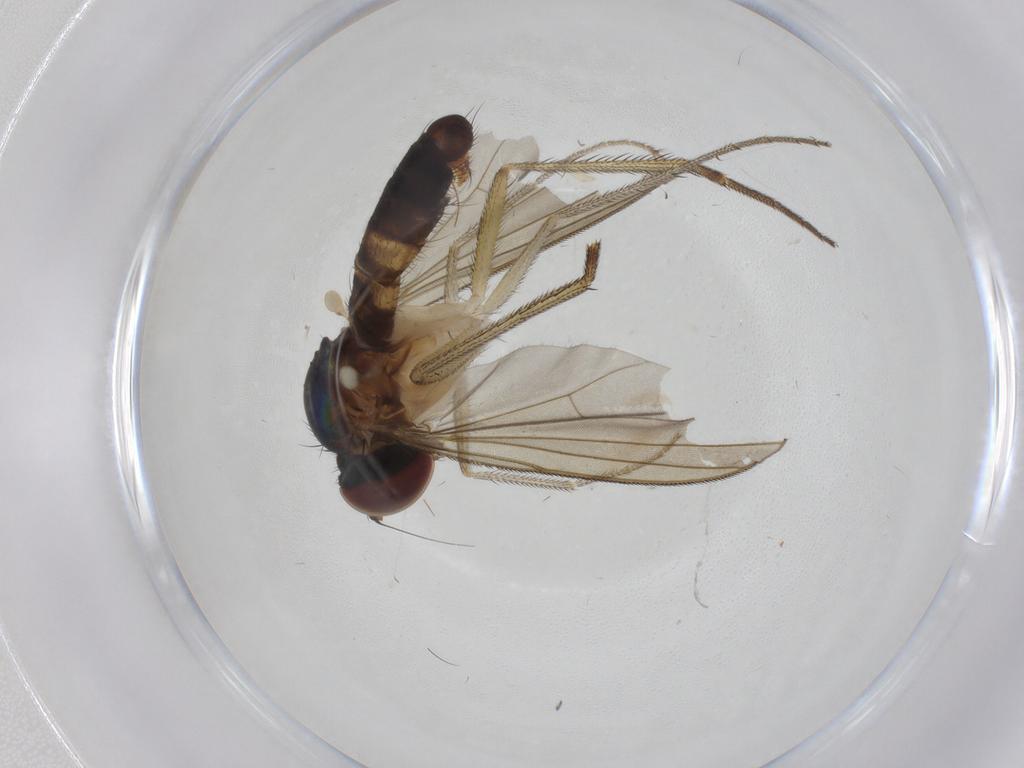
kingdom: Animalia
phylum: Arthropoda
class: Insecta
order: Diptera
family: Dolichopodidae
